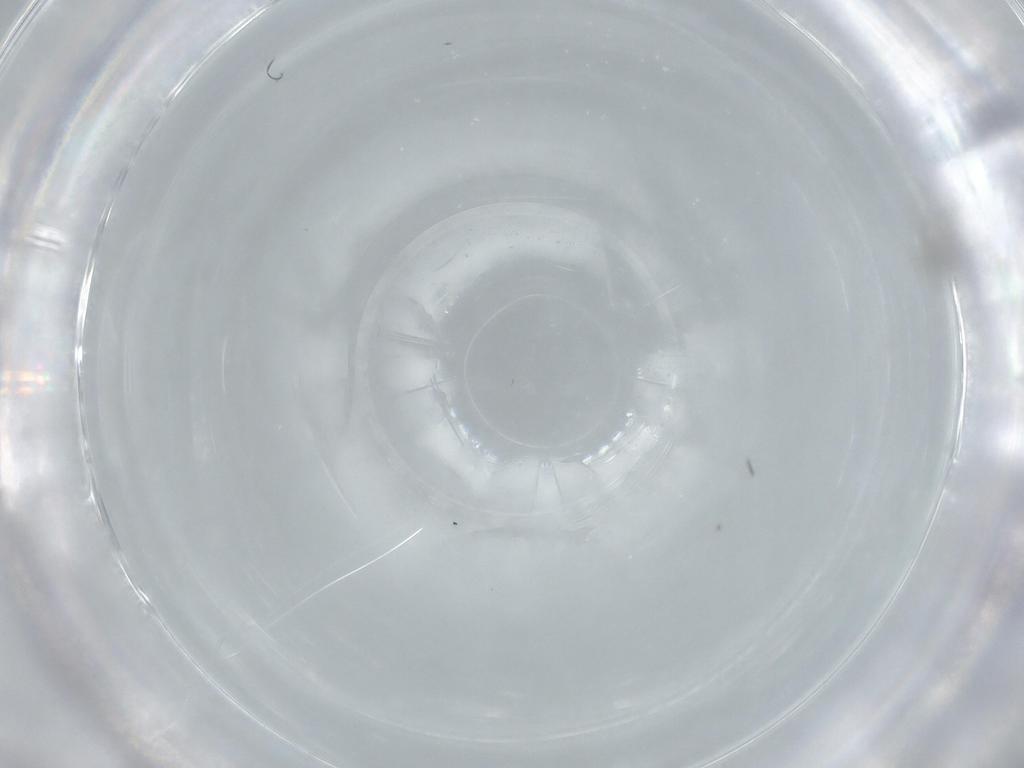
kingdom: Animalia
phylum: Arthropoda
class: Insecta
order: Diptera
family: Cecidomyiidae
